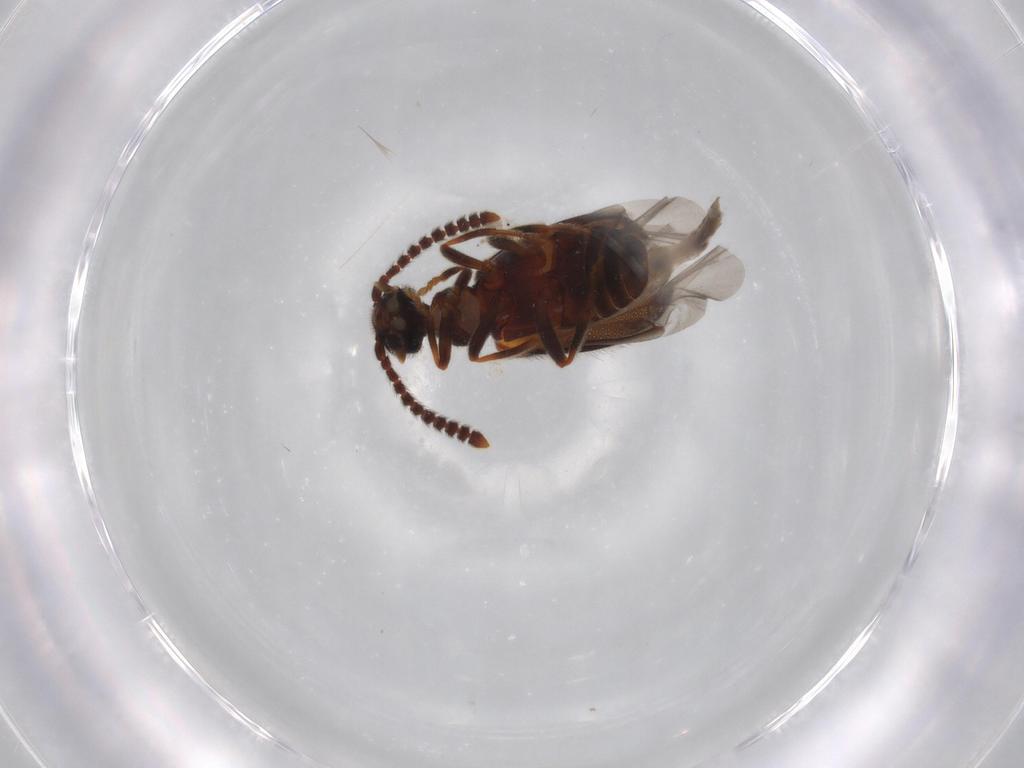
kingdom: Animalia
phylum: Arthropoda
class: Insecta
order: Coleoptera
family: Aderidae
